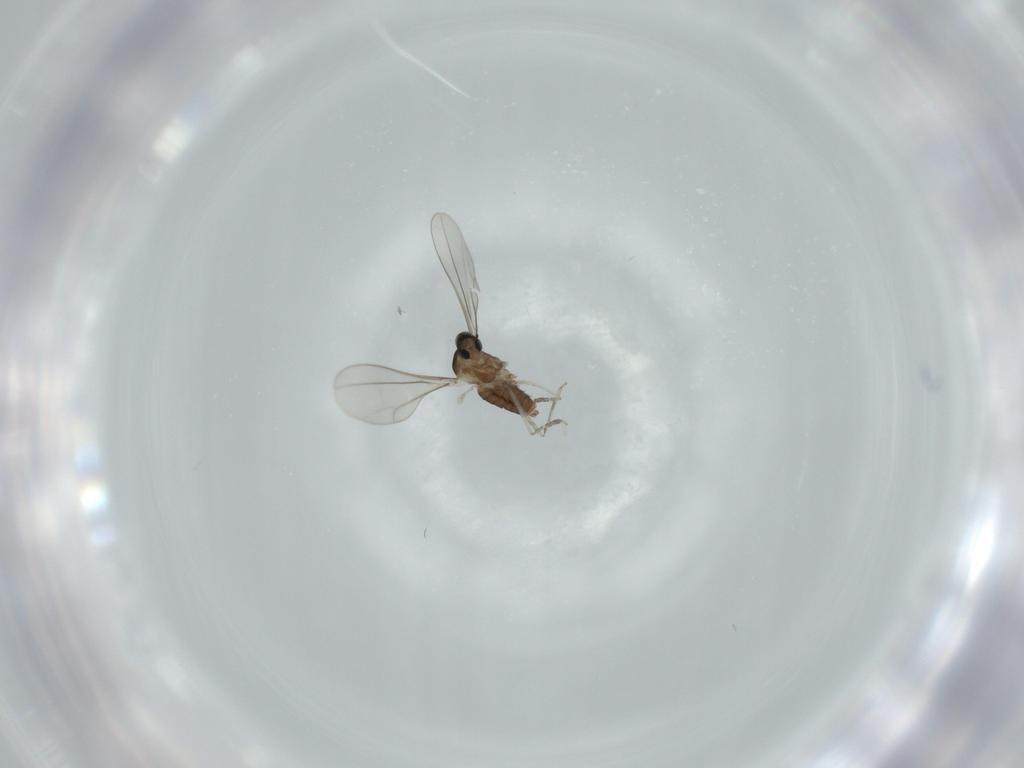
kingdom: Animalia
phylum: Arthropoda
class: Insecta
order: Diptera
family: Cecidomyiidae
